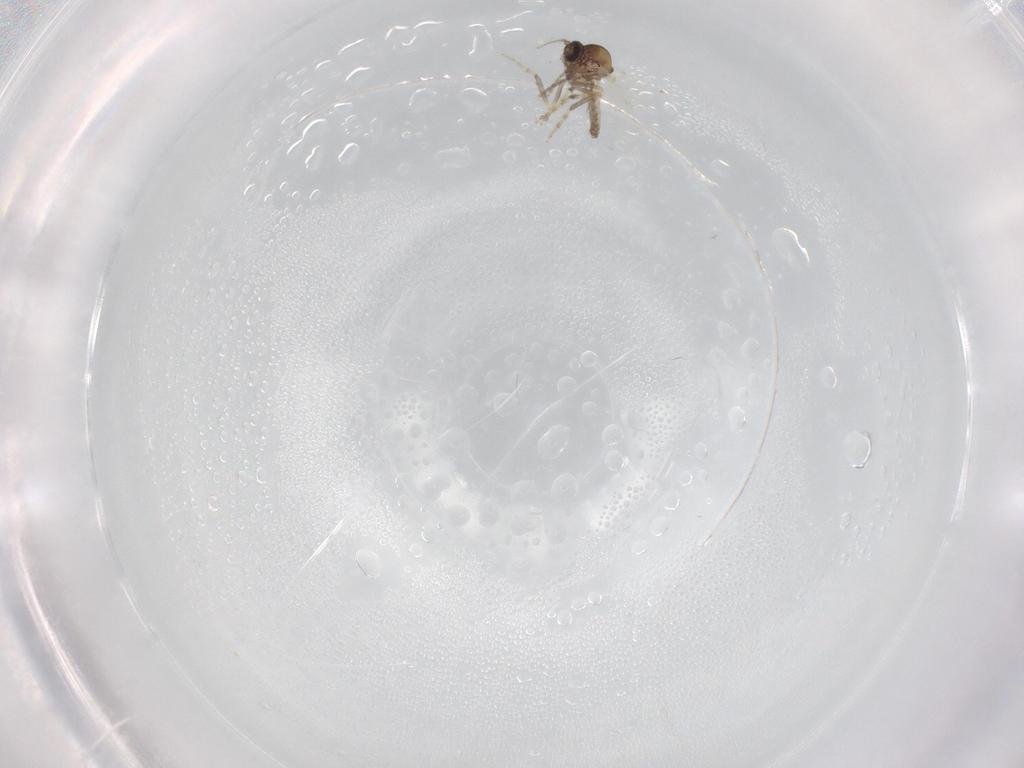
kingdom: Animalia
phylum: Arthropoda
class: Insecta
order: Diptera
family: Ceratopogonidae
